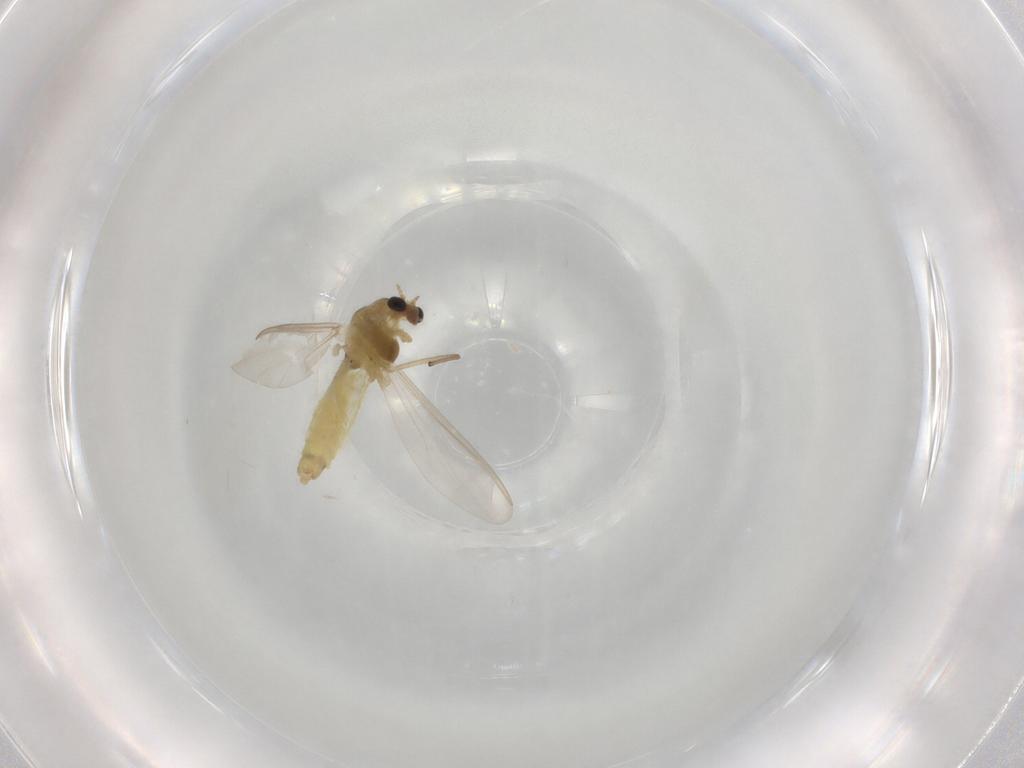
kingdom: Animalia
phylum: Arthropoda
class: Insecta
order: Diptera
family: Chironomidae
